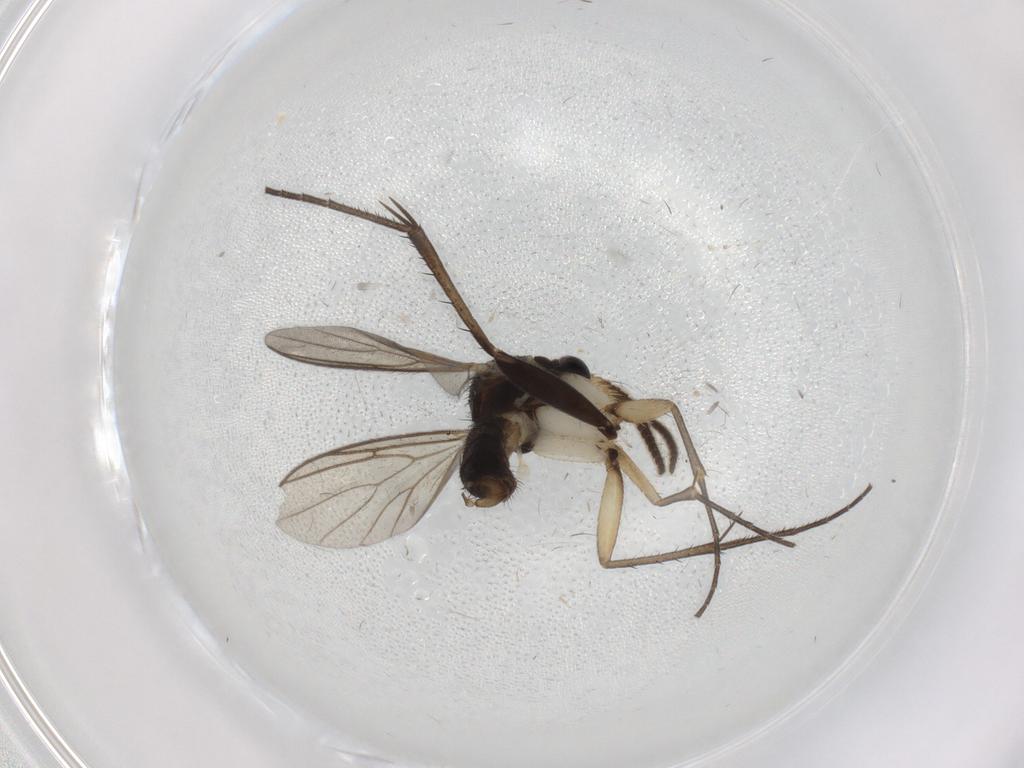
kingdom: Animalia
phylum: Arthropoda
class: Insecta
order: Diptera
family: Mycetophilidae
